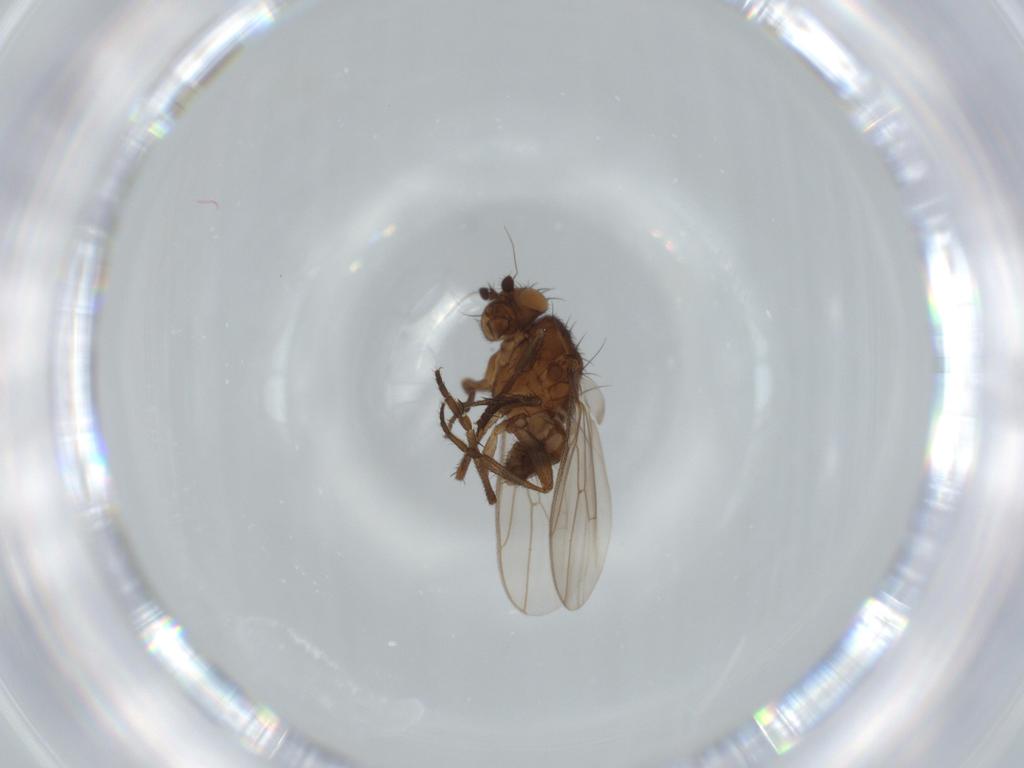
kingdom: Animalia
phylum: Arthropoda
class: Insecta
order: Diptera
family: Sphaeroceridae
